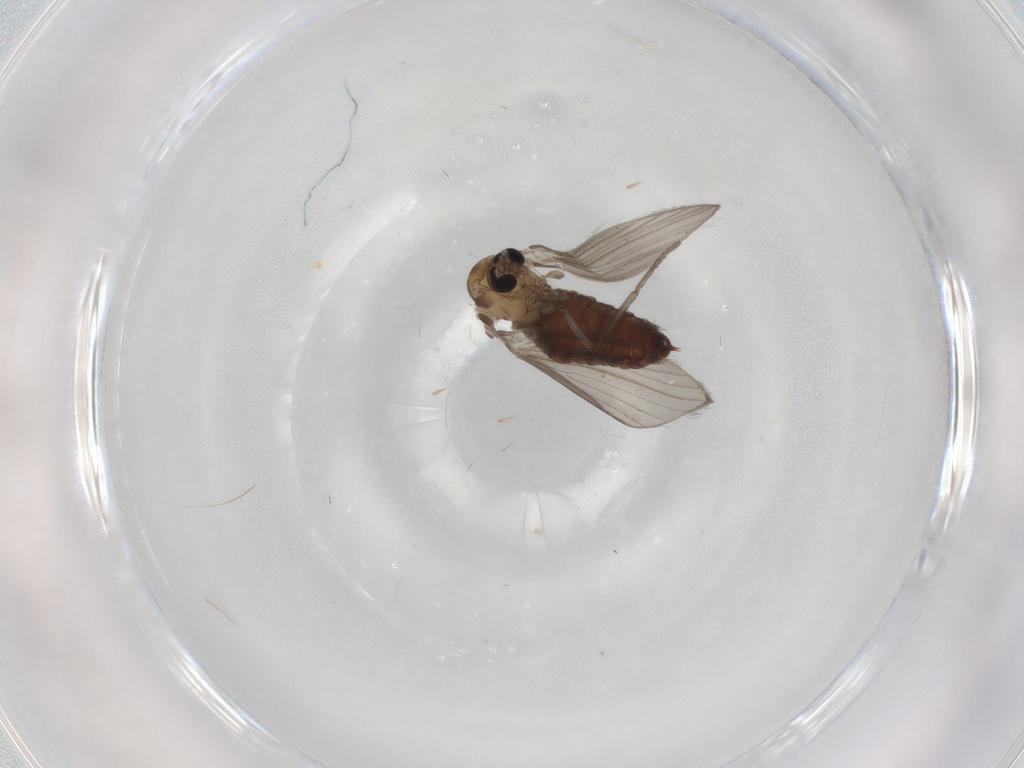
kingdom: Animalia
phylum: Arthropoda
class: Insecta
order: Diptera
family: Psychodidae
